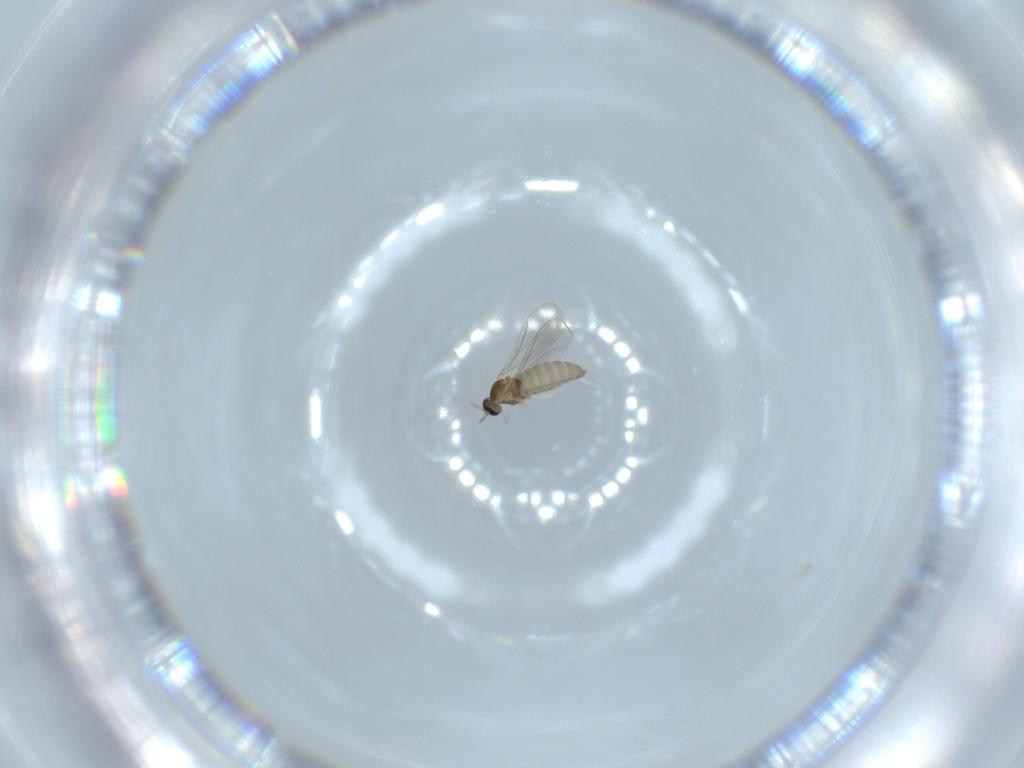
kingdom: Animalia
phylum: Arthropoda
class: Insecta
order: Diptera
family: Cecidomyiidae
